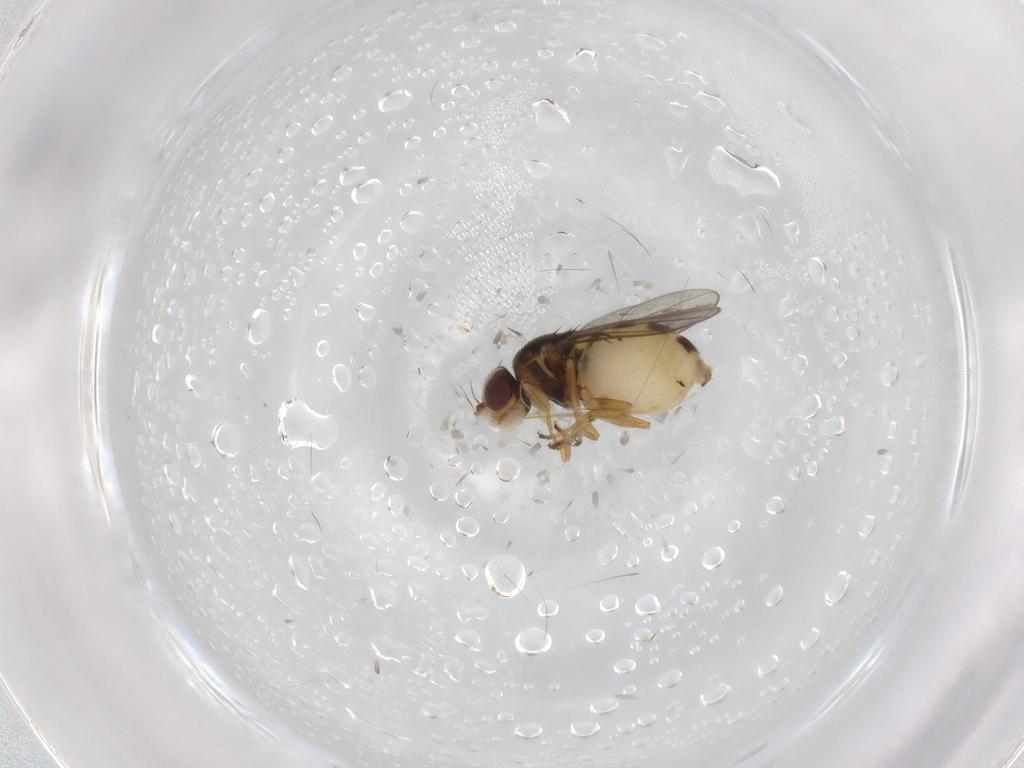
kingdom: Animalia
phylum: Arthropoda
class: Insecta
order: Diptera
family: Chloropidae
